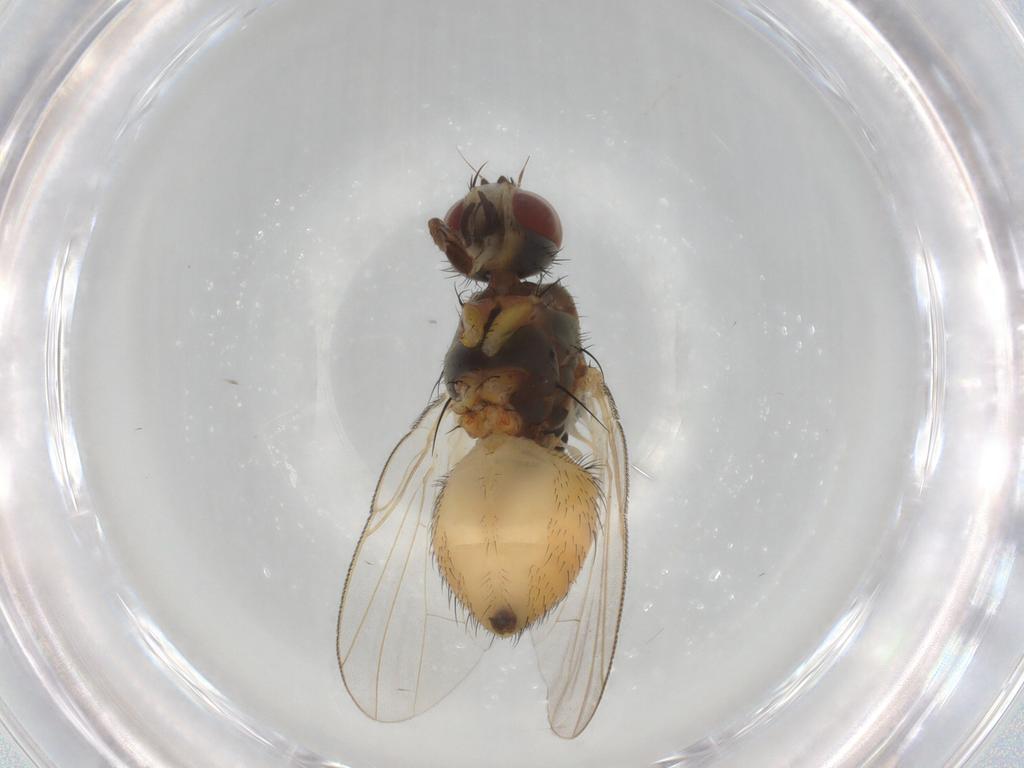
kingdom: Animalia
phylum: Arthropoda
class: Insecta
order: Diptera
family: Muscidae
